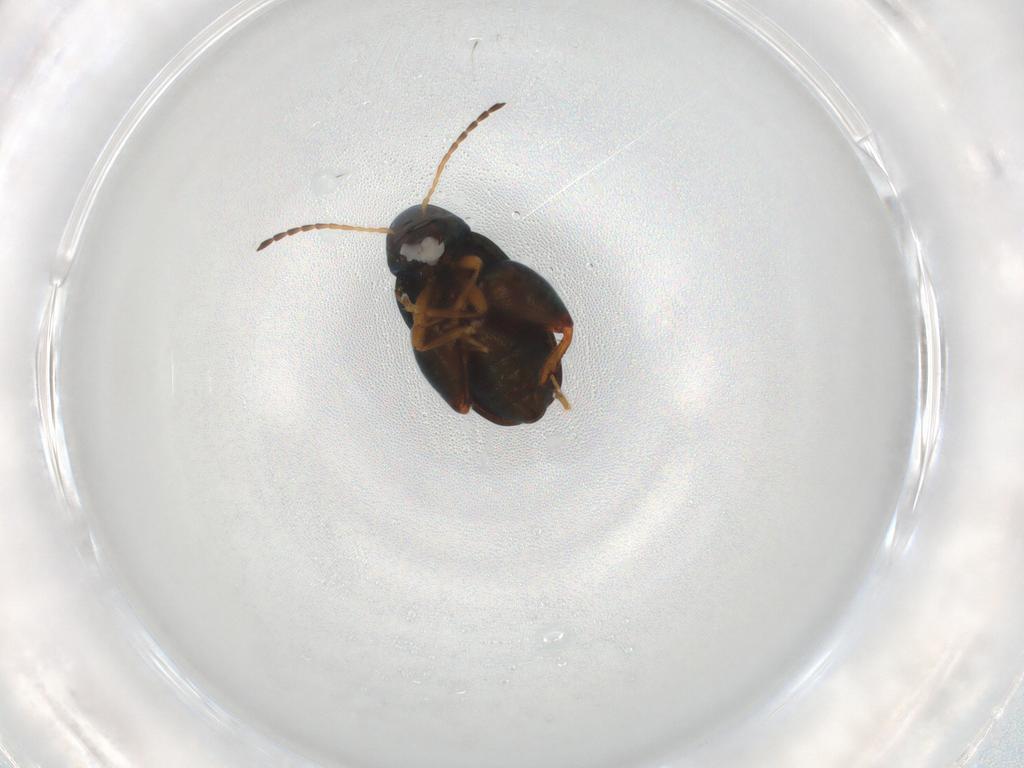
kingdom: Animalia
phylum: Arthropoda
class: Insecta
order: Coleoptera
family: Chrysomelidae
